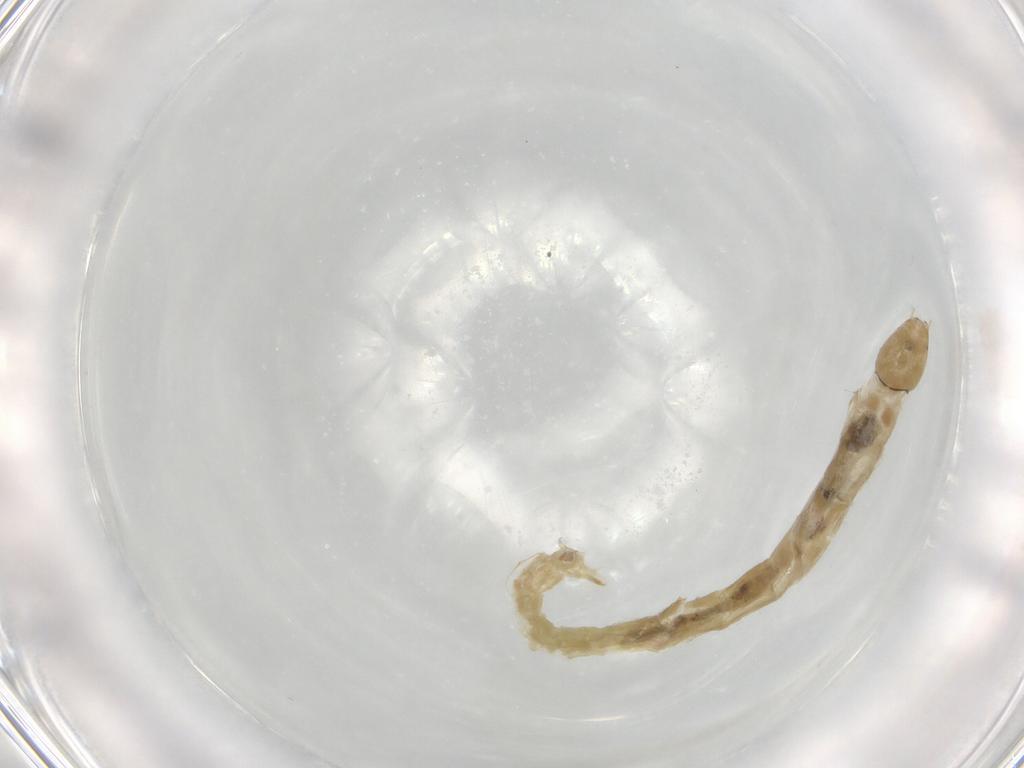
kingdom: Animalia
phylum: Arthropoda
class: Insecta
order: Diptera
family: Chironomidae
